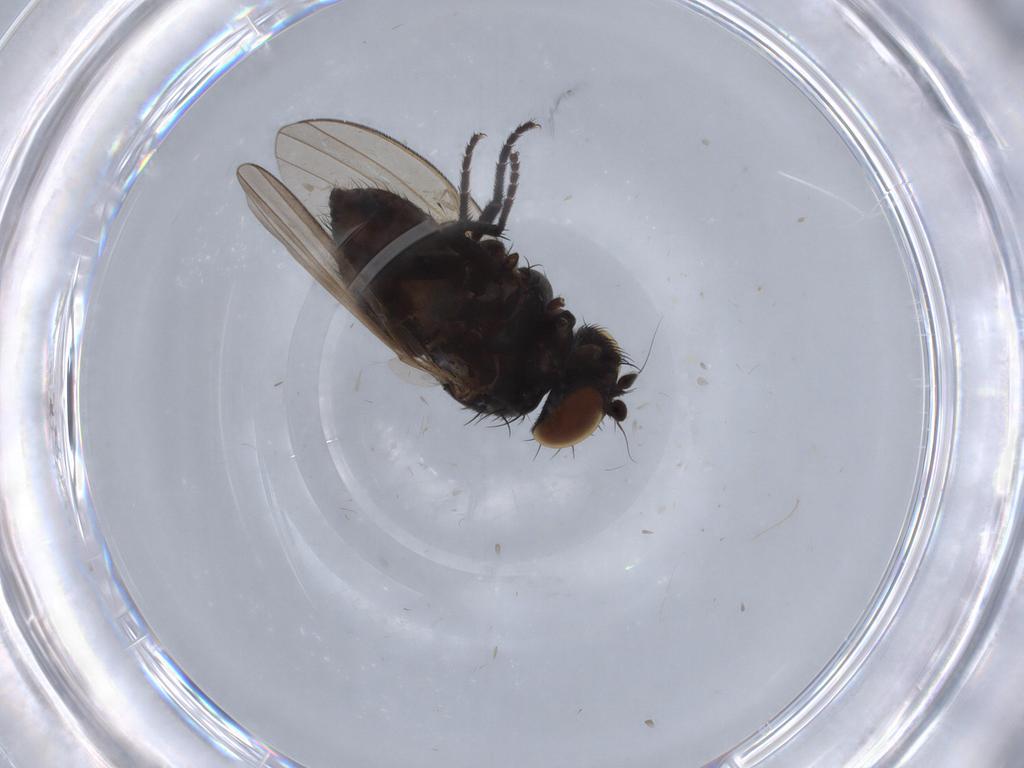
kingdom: Animalia
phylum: Arthropoda
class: Insecta
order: Diptera
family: Milichiidae
